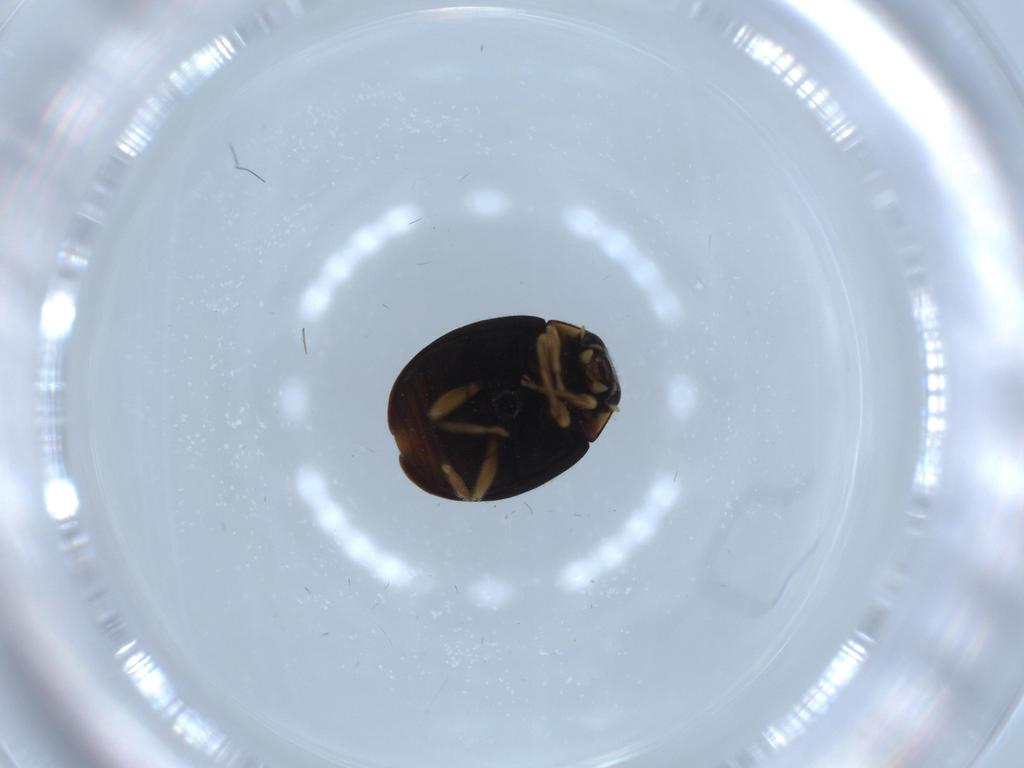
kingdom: Animalia
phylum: Arthropoda
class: Insecta
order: Coleoptera
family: Coccinellidae
